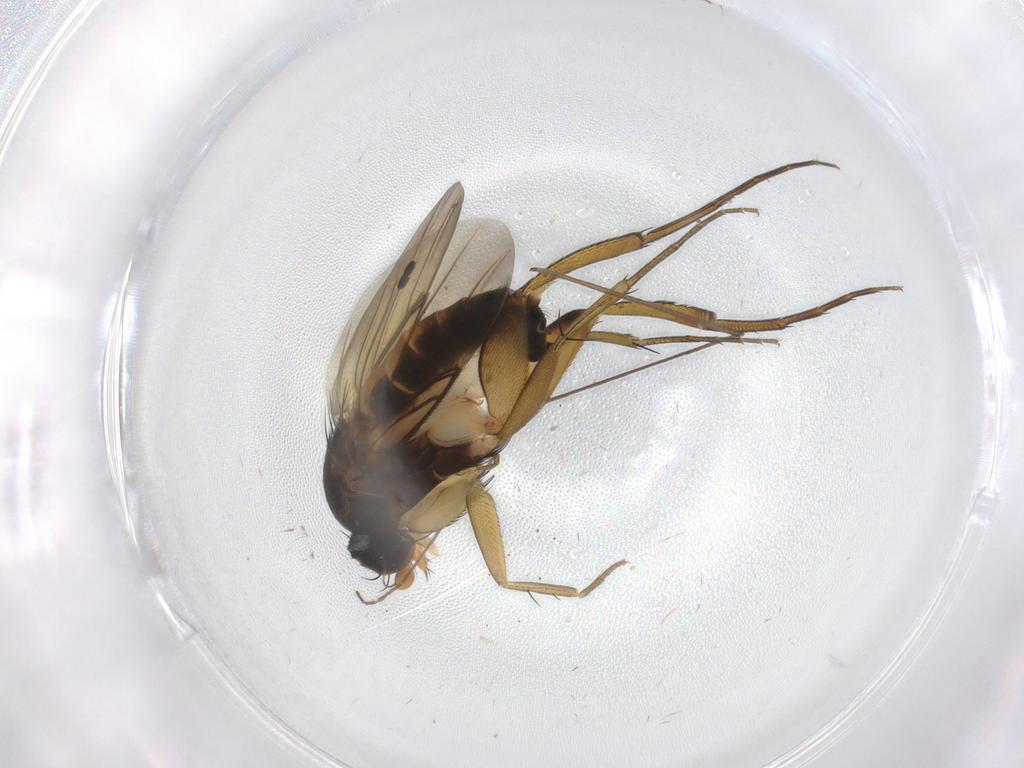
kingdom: Animalia
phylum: Arthropoda
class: Insecta
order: Diptera
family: Phoridae
